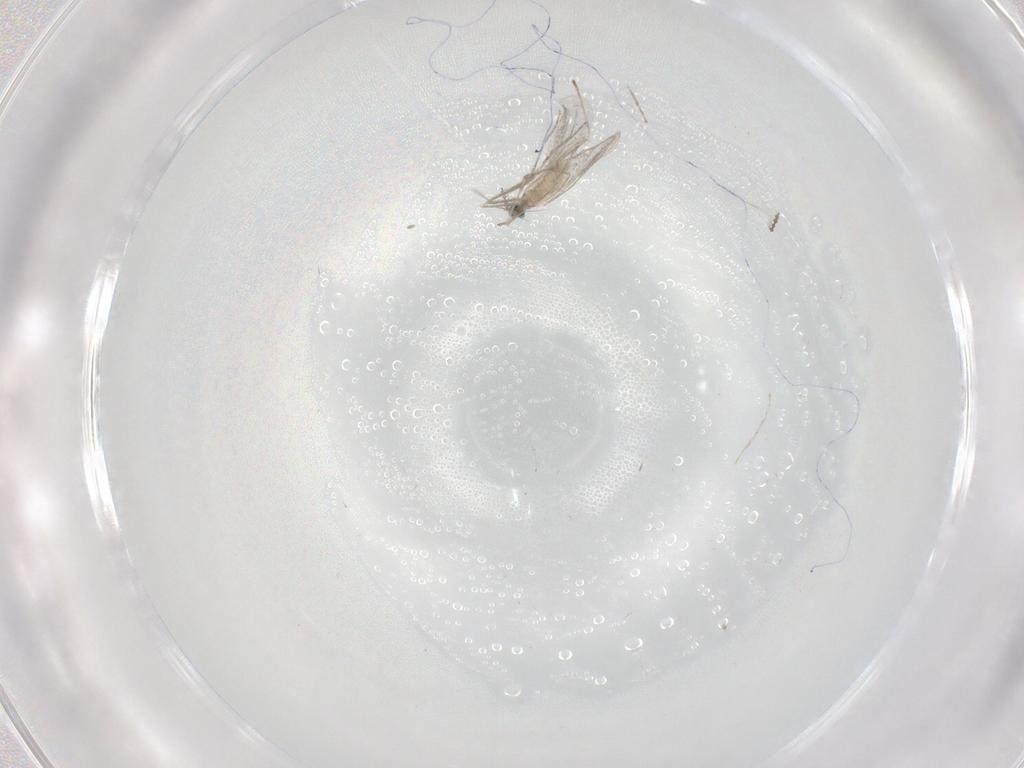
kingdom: Animalia
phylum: Arthropoda
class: Insecta
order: Diptera
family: Cecidomyiidae
